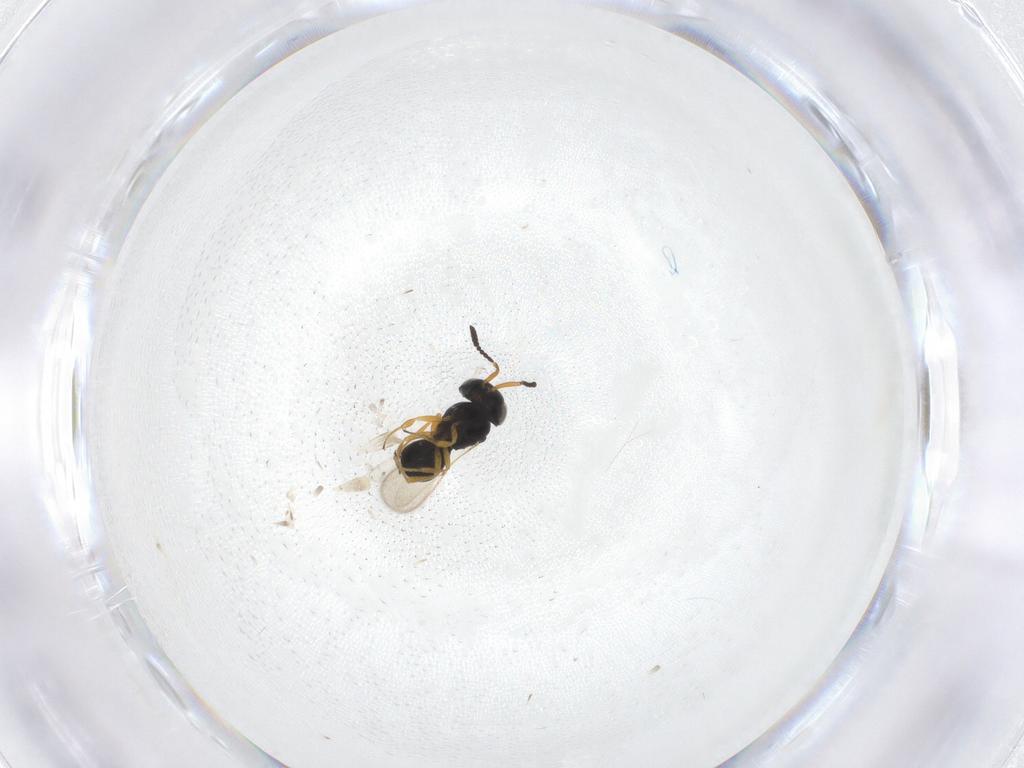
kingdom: Animalia
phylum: Arthropoda
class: Insecta
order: Hymenoptera
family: Scelionidae
